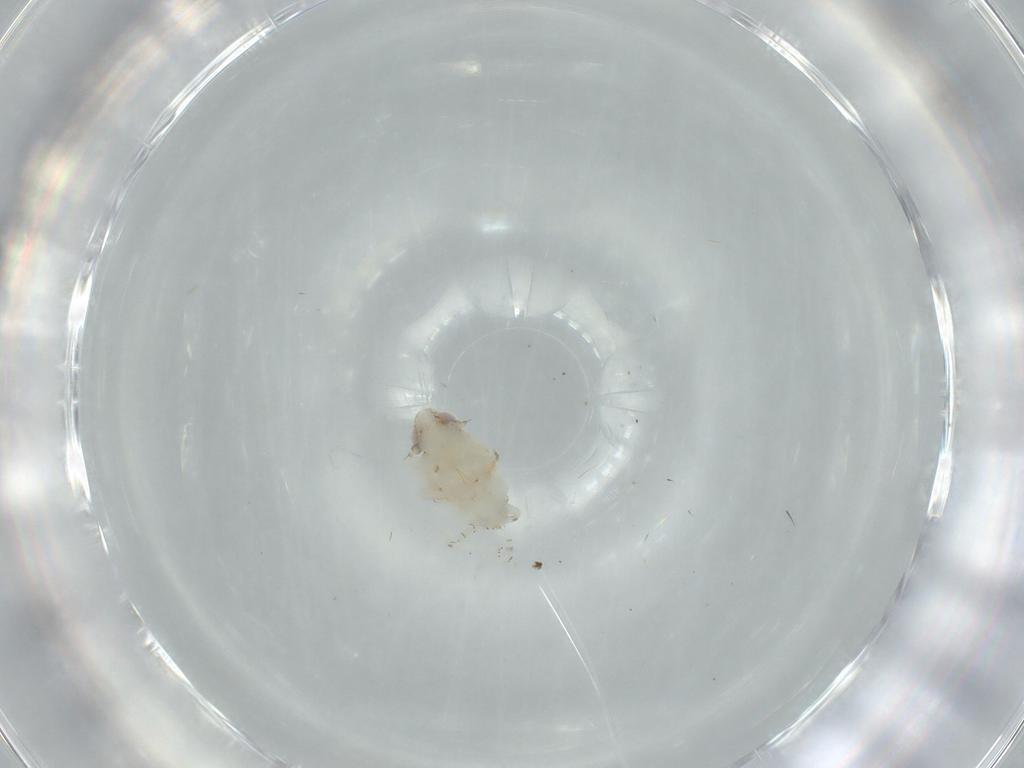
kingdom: Animalia
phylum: Arthropoda
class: Insecta
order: Hemiptera
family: Nogodinidae
